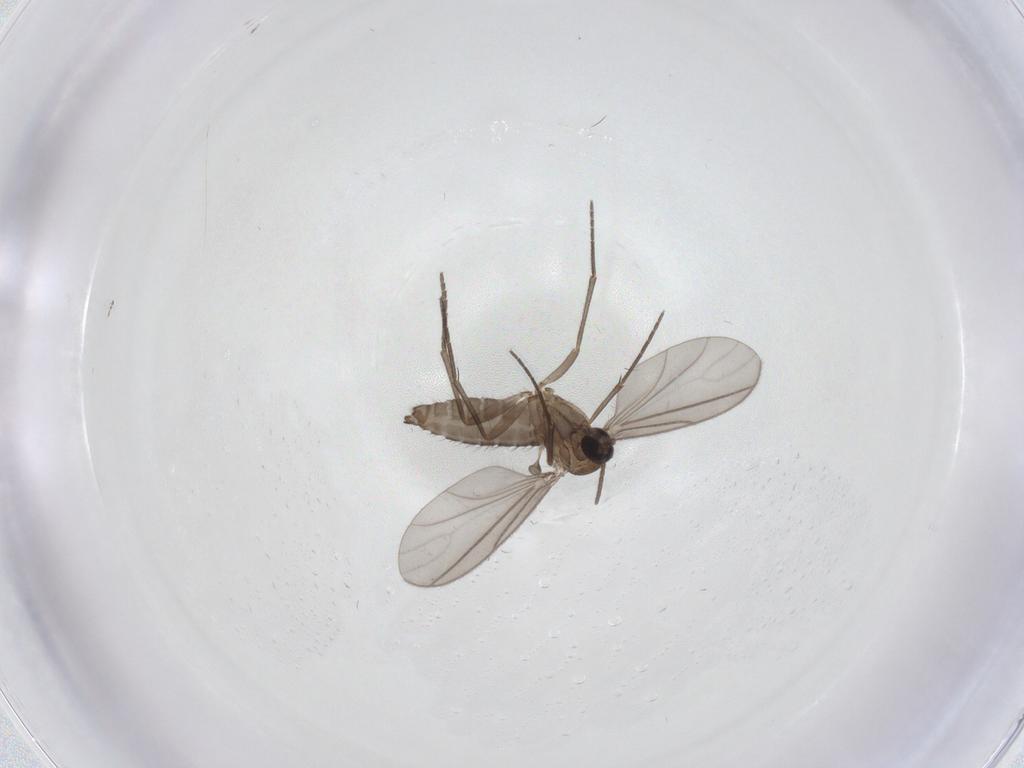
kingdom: Animalia
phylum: Arthropoda
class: Insecta
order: Diptera
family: Sciaridae
